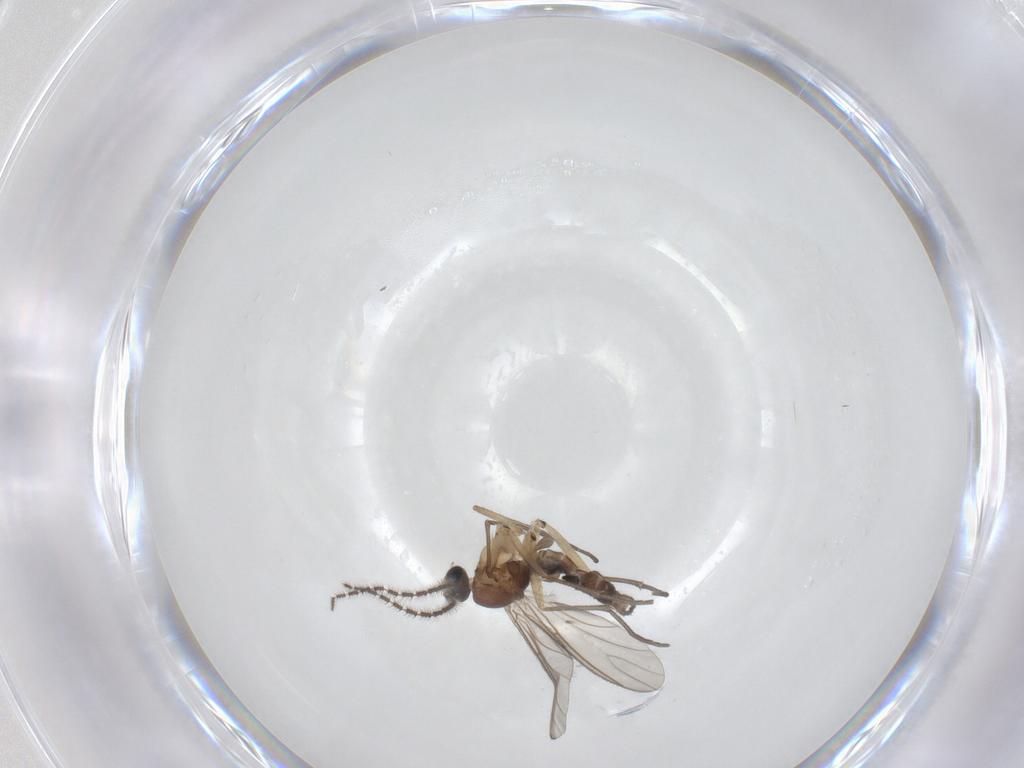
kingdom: Animalia
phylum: Arthropoda
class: Insecta
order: Diptera
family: Sciaridae
